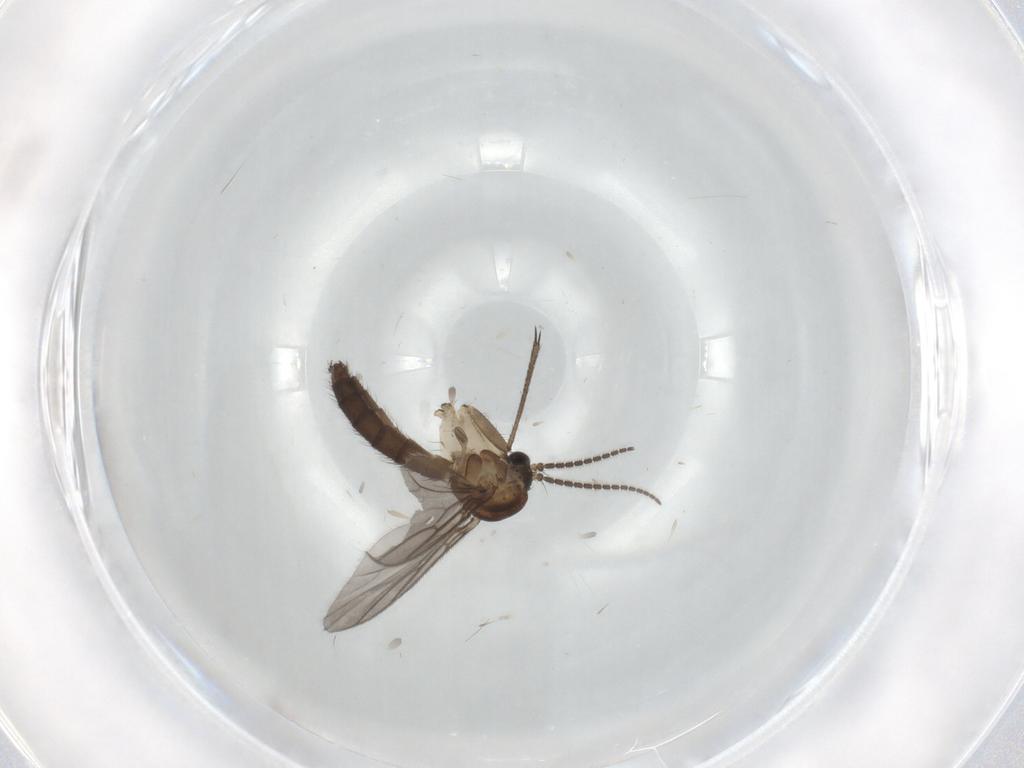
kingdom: Animalia
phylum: Arthropoda
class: Insecta
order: Diptera
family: Mycetophilidae
